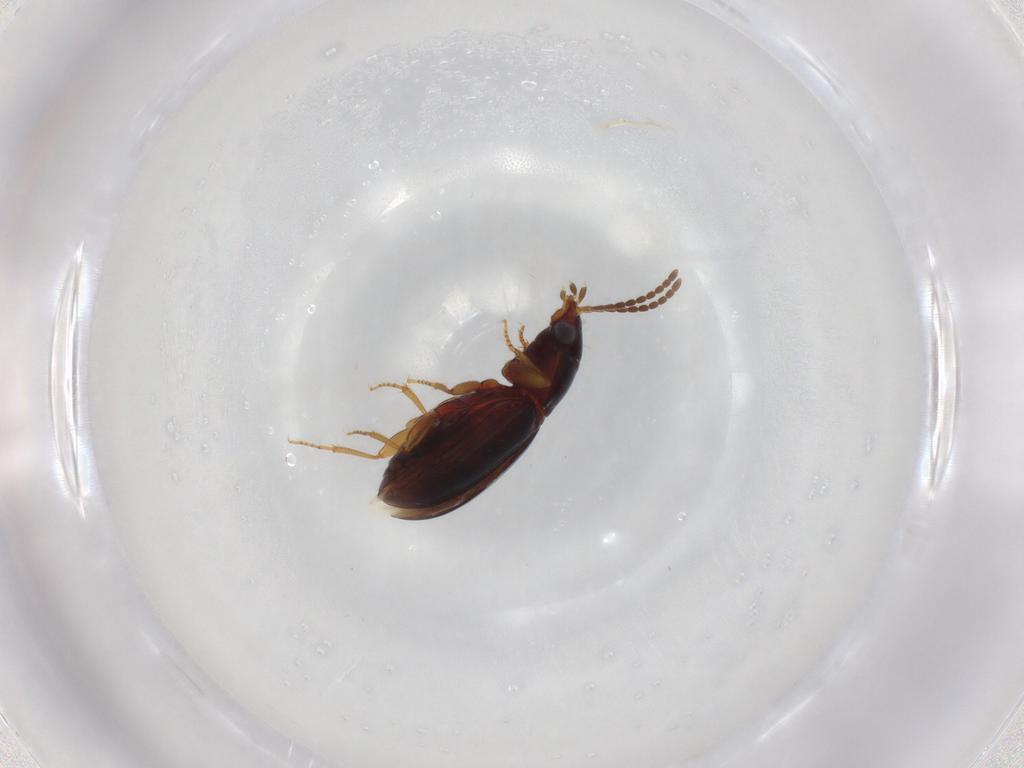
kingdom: Animalia
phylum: Arthropoda
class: Insecta
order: Coleoptera
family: Carabidae
